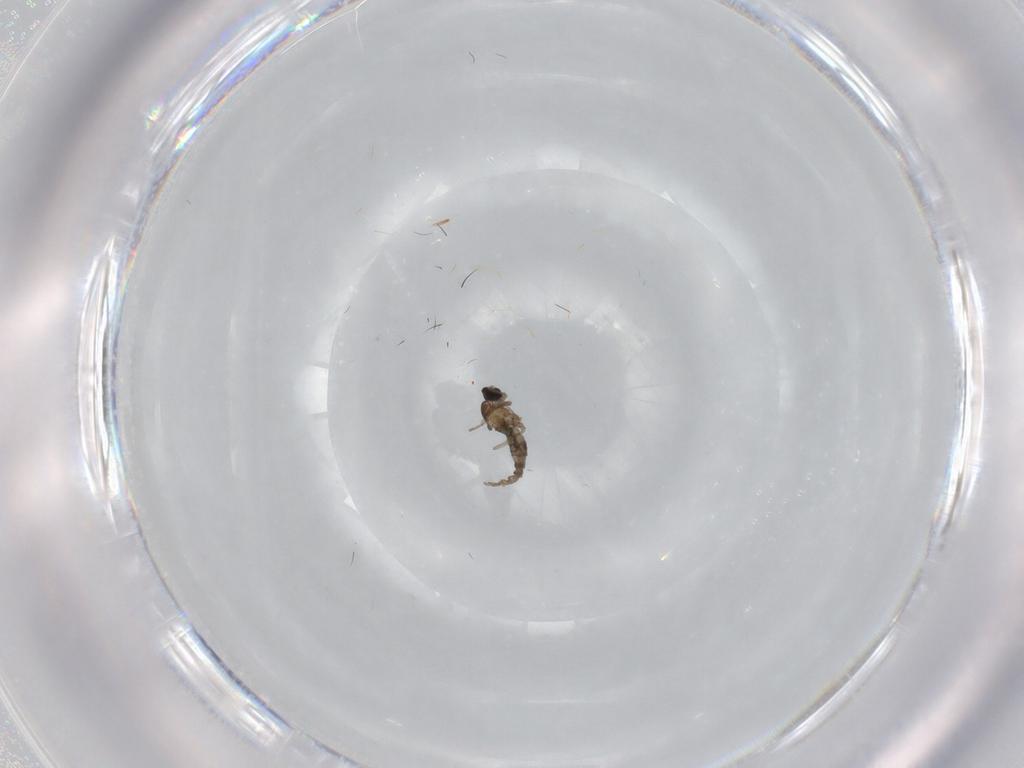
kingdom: Animalia
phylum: Arthropoda
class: Insecta
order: Diptera
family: Cecidomyiidae
